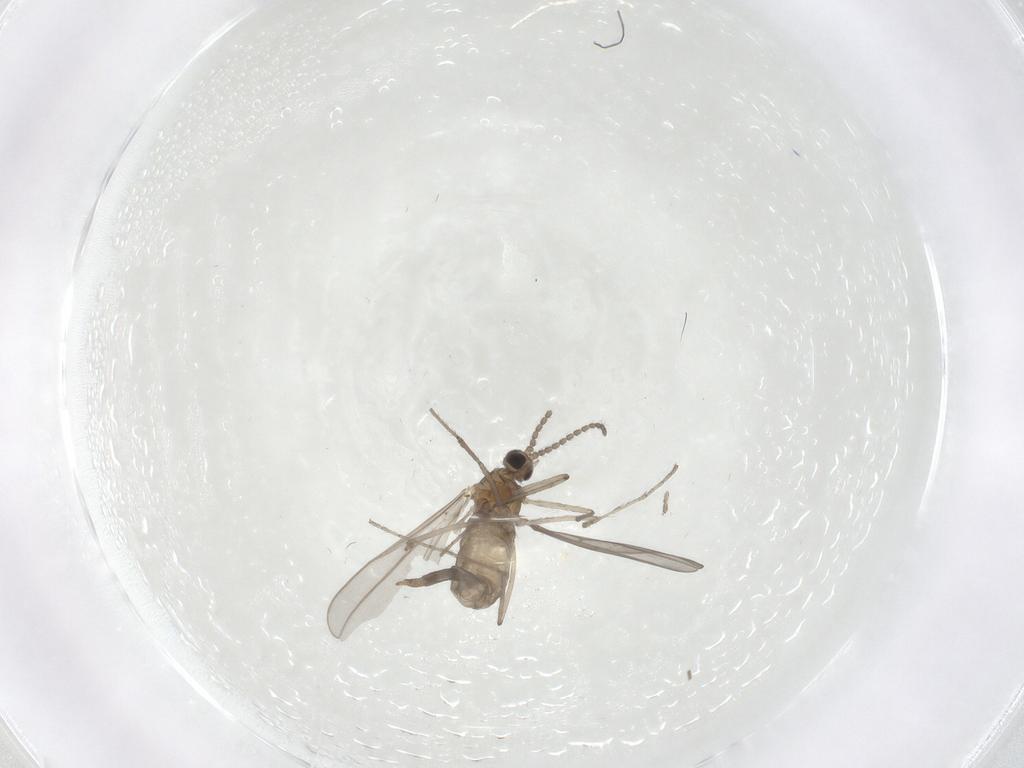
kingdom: Animalia
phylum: Arthropoda
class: Insecta
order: Diptera
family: Cecidomyiidae
